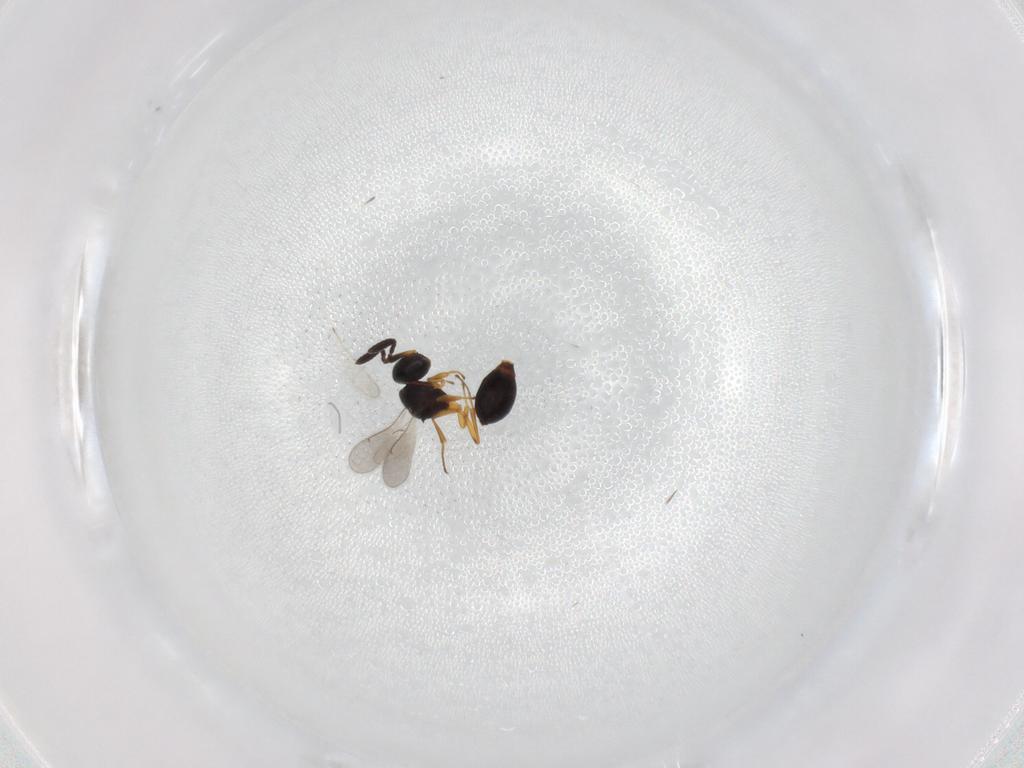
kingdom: Animalia
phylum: Arthropoda
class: Insecta
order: Hymenoptera
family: Scelionidae
